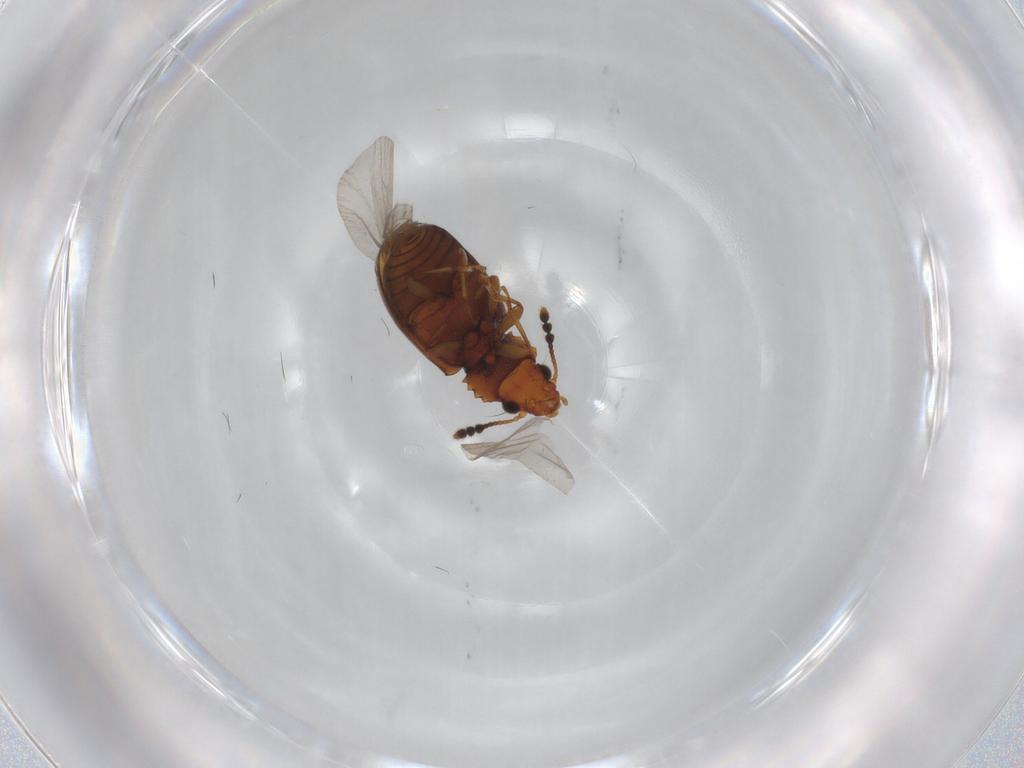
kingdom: Animalia
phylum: Arthropoda
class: Insecta
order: Coleoptera
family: Salpingidae
